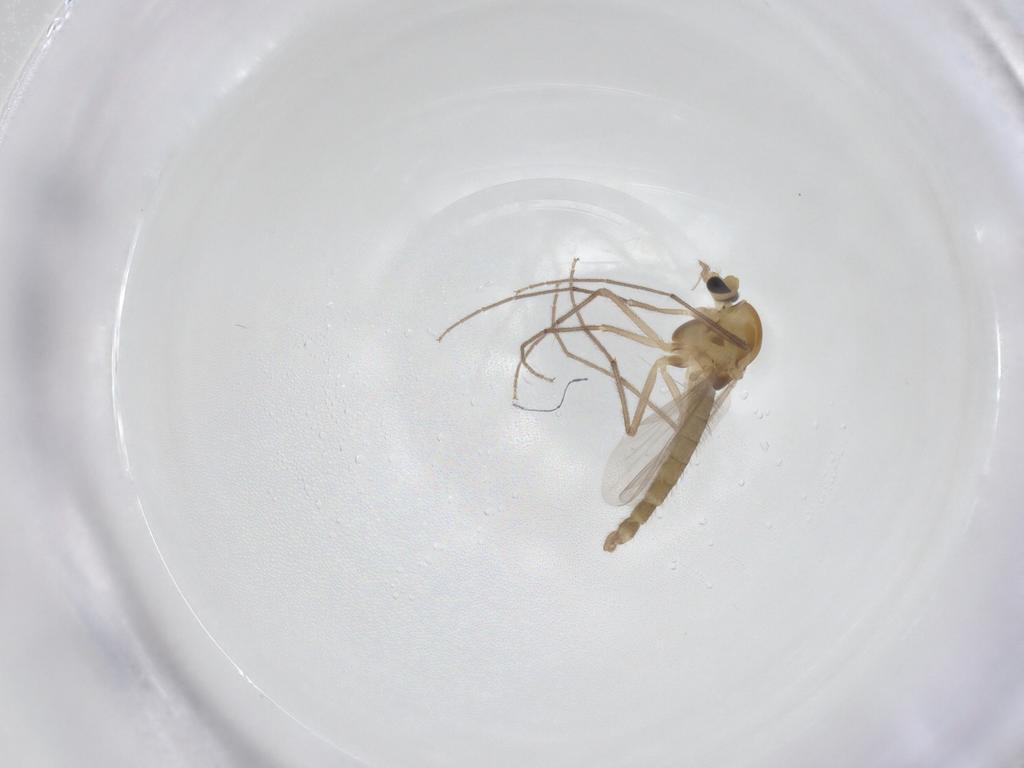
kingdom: Animalia
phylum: Arthropoda
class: Insecta
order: Diptera
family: Chironomidae
